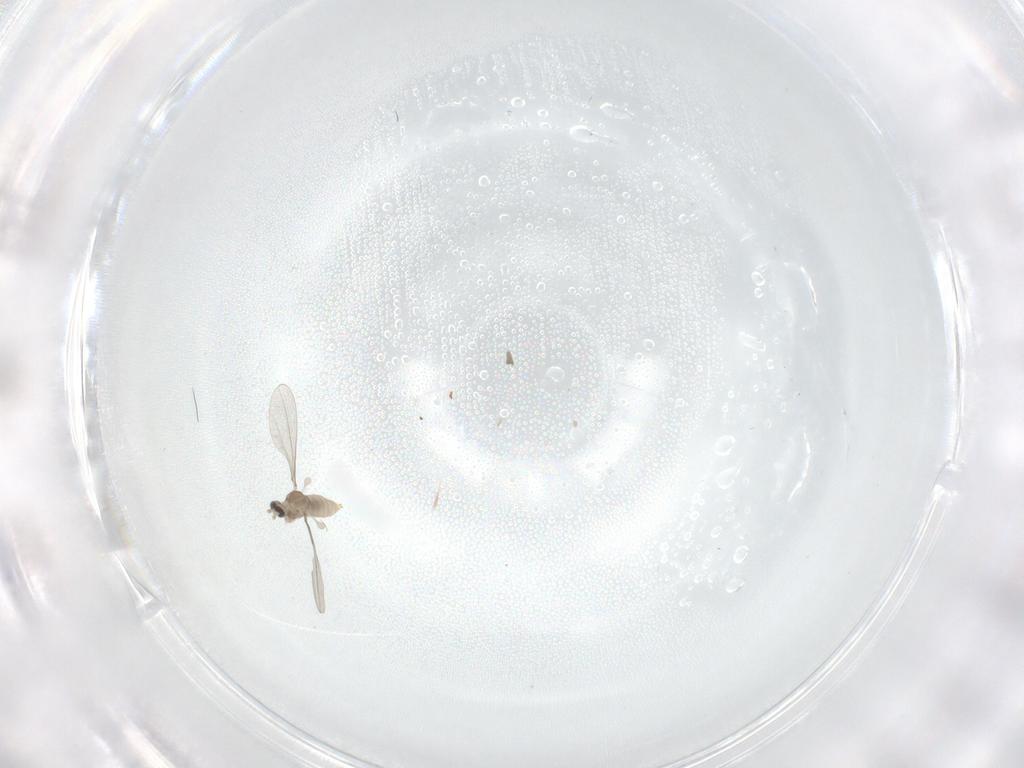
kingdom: Animalia
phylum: Arthropoda
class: Insecta
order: Diptera
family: Cecidomyiidae
